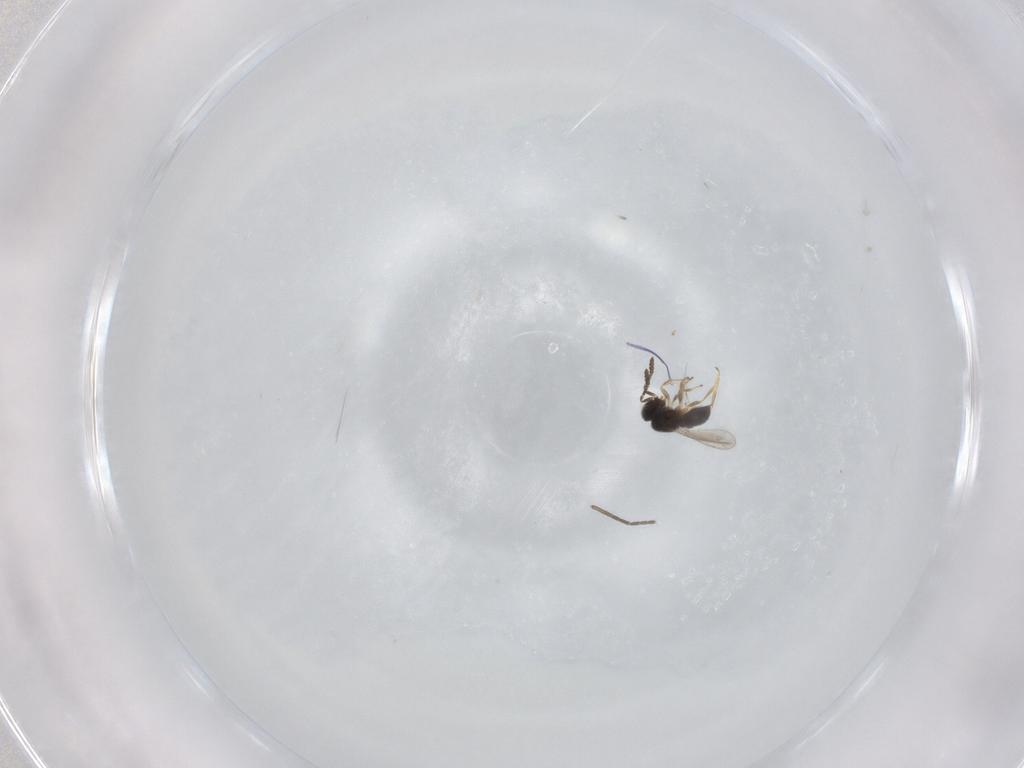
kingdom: Animalia
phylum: Arthropoda
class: Insecta
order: Hymenoptera
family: Scelionidae
